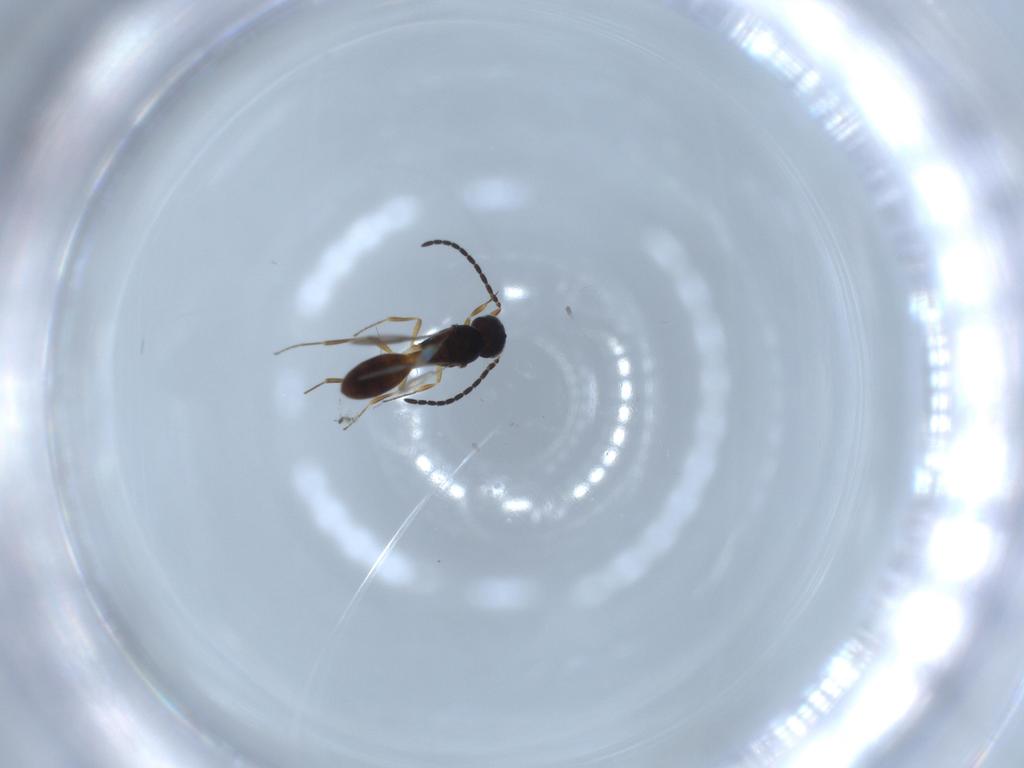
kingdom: Animalia
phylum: Arthropoda
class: Insecta
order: Hymenoptera
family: Scelionidae
